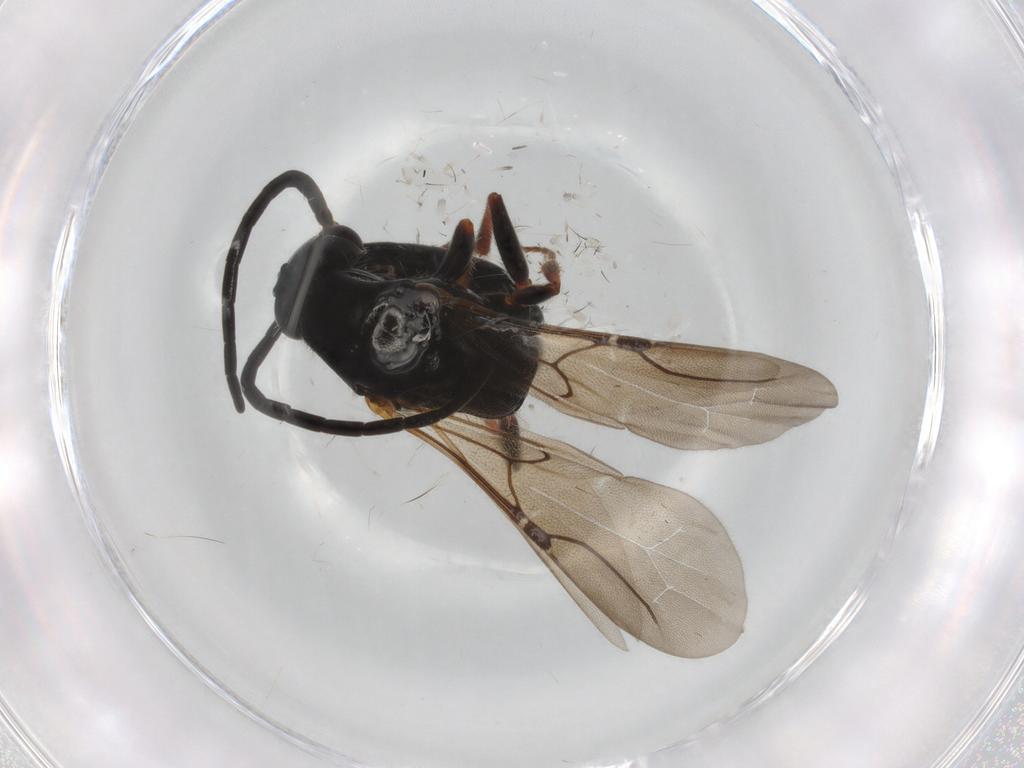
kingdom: Animalia
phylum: Arthropoda
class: Insecta
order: Hymenoptera
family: Bethylidae
